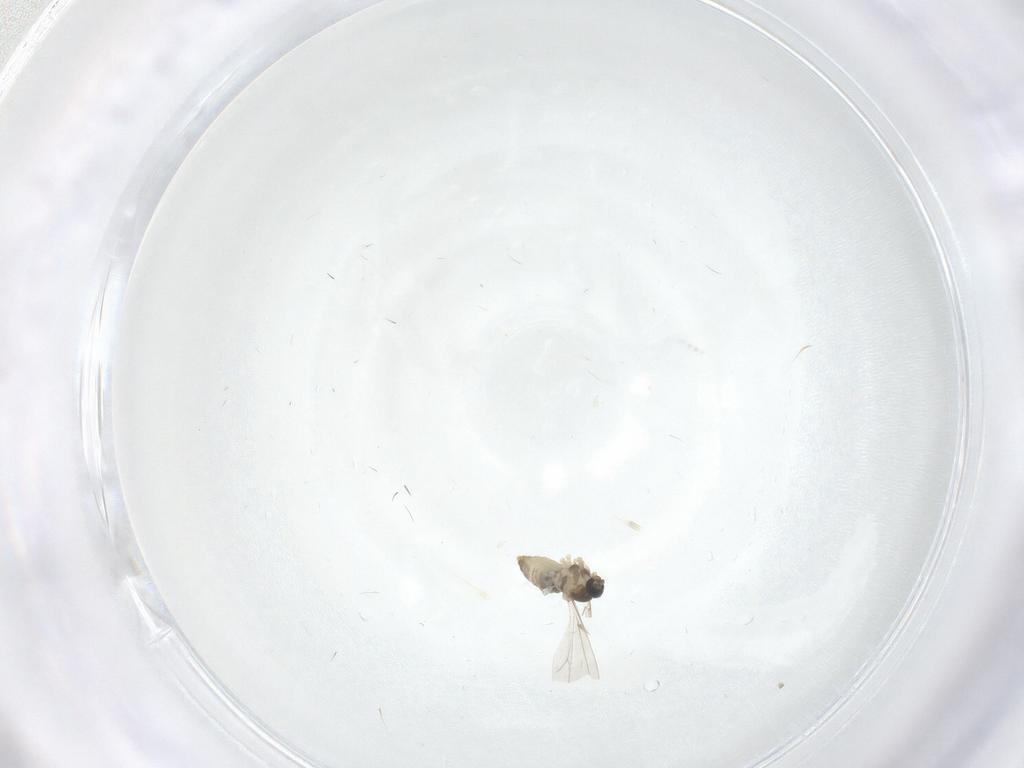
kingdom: Animalia
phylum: Arthropoda
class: Insecta
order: Diptera
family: Cecidomyiidae
